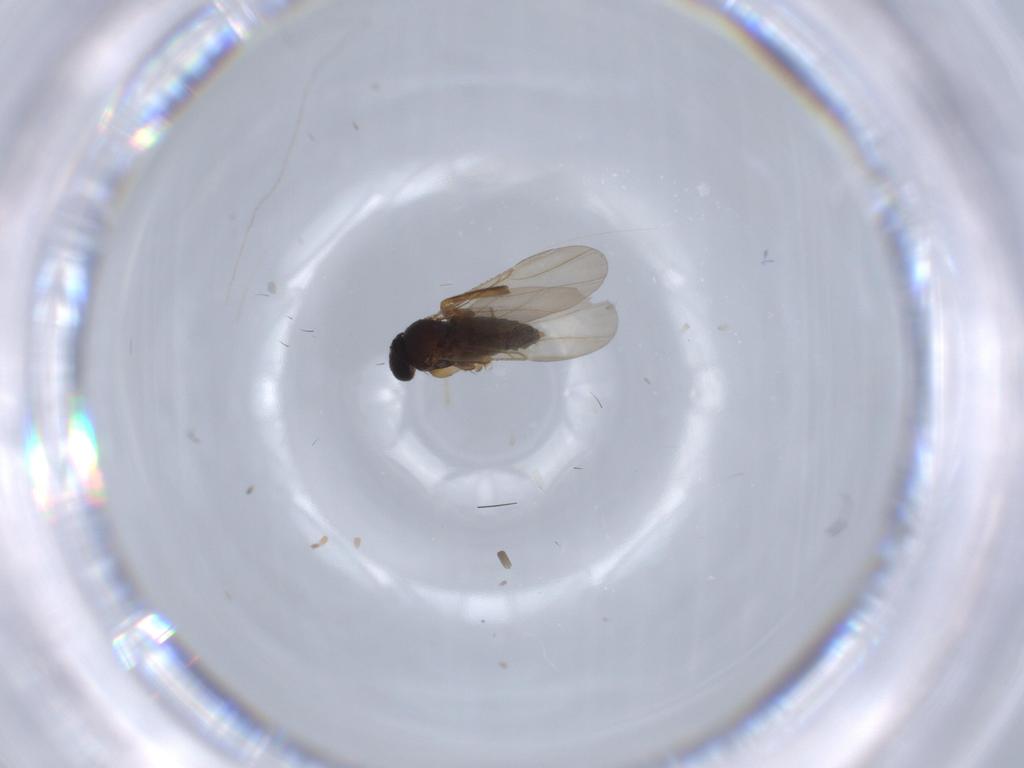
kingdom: Animalia
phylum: Arthropoda
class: Insecta
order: Diptera
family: Phoridae
